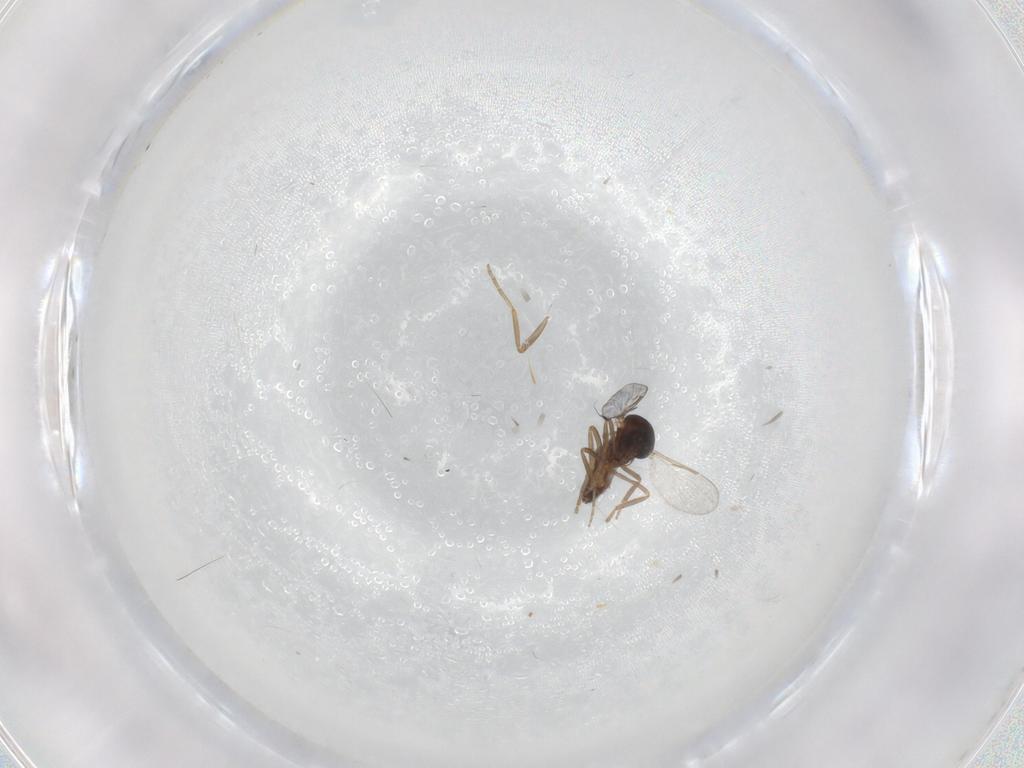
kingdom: Animalia
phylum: Arthropoda
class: Insecta
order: Diptera
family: Ceratopogonidae
